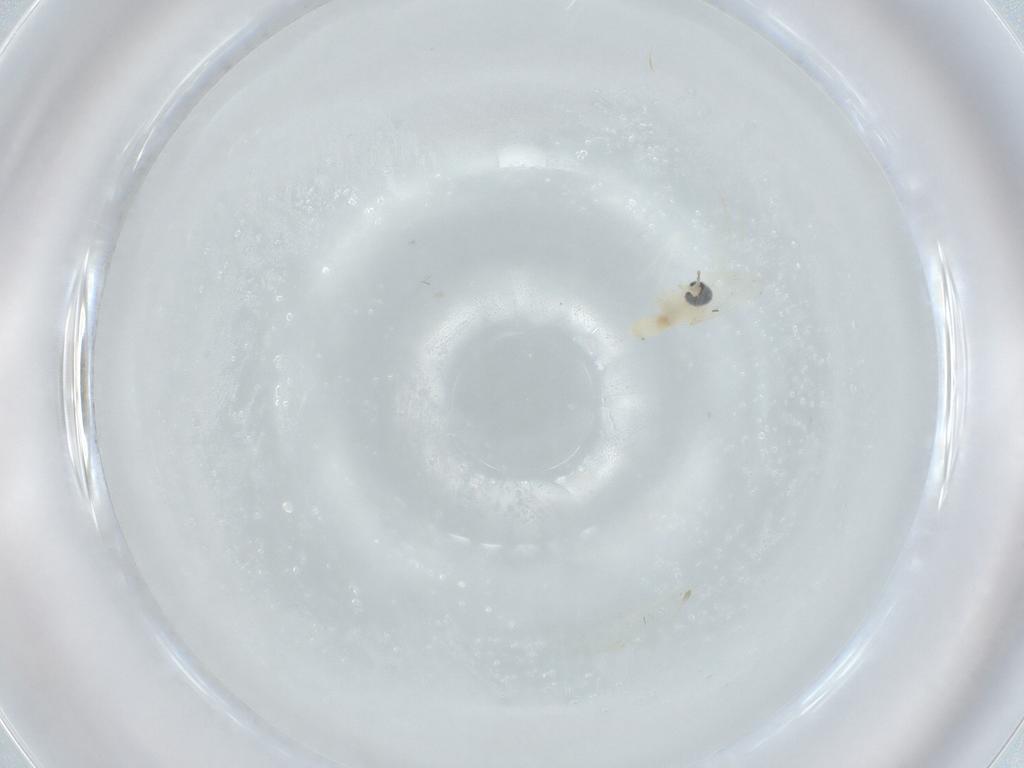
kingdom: Animalia
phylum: Arthropoda
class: Insecta
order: Diptera
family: Cecidomyiidae
